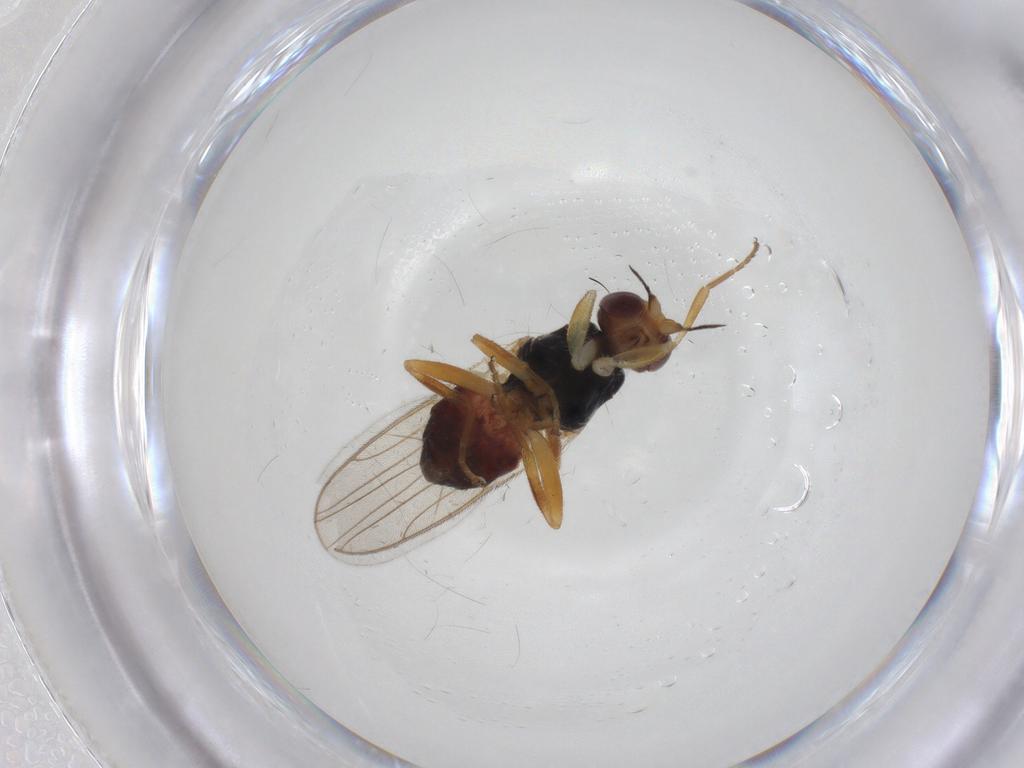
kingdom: Animalia
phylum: Arthropoda
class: Insecta
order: Diptera
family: Chloropidae
